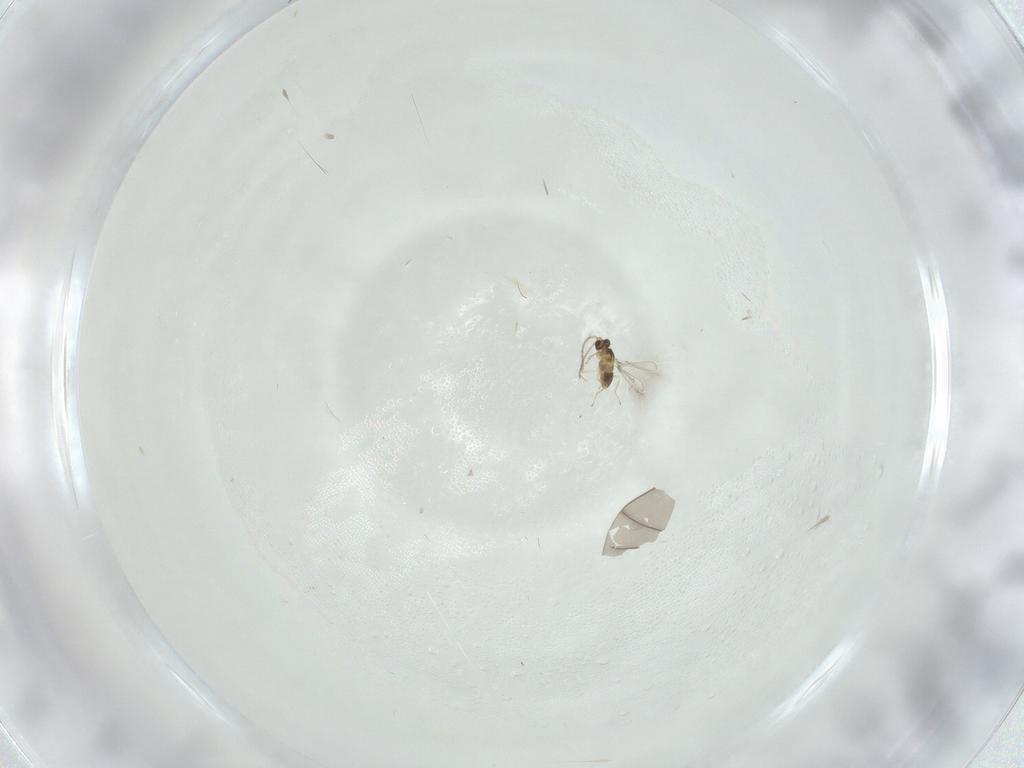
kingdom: Animalia
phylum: Arthropoda
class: Insecta
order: Hymenoptera
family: Mymaridae
